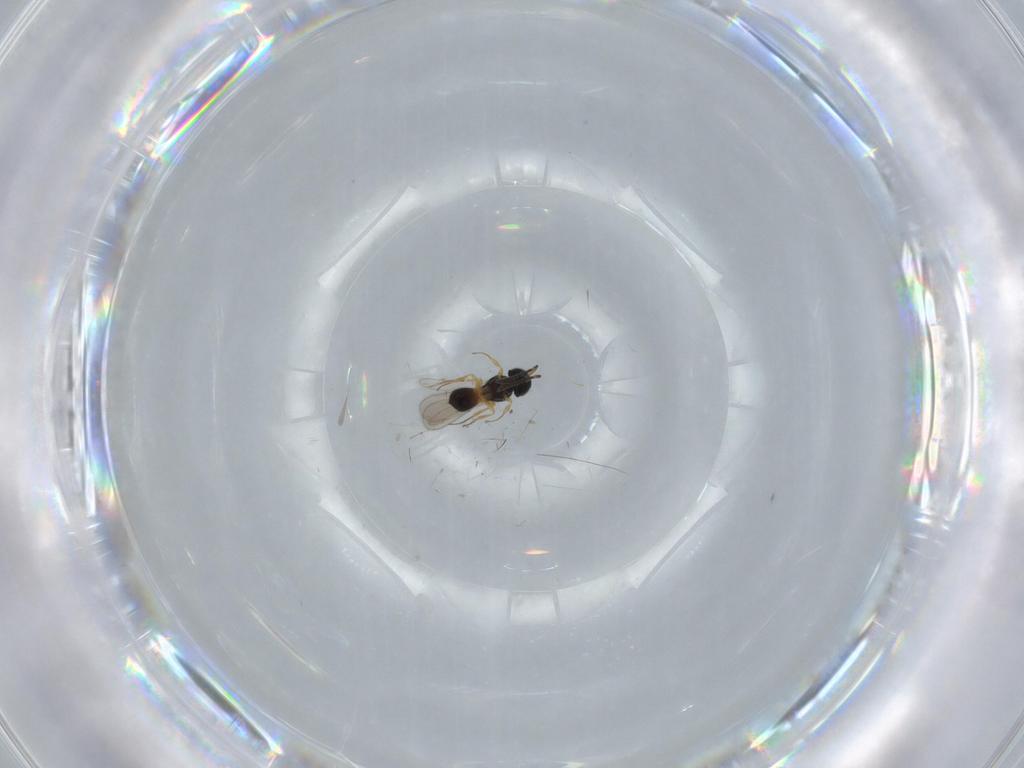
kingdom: Animalia
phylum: Arthropoda
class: Insecta
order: Hymenoptera
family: Scelionidae
